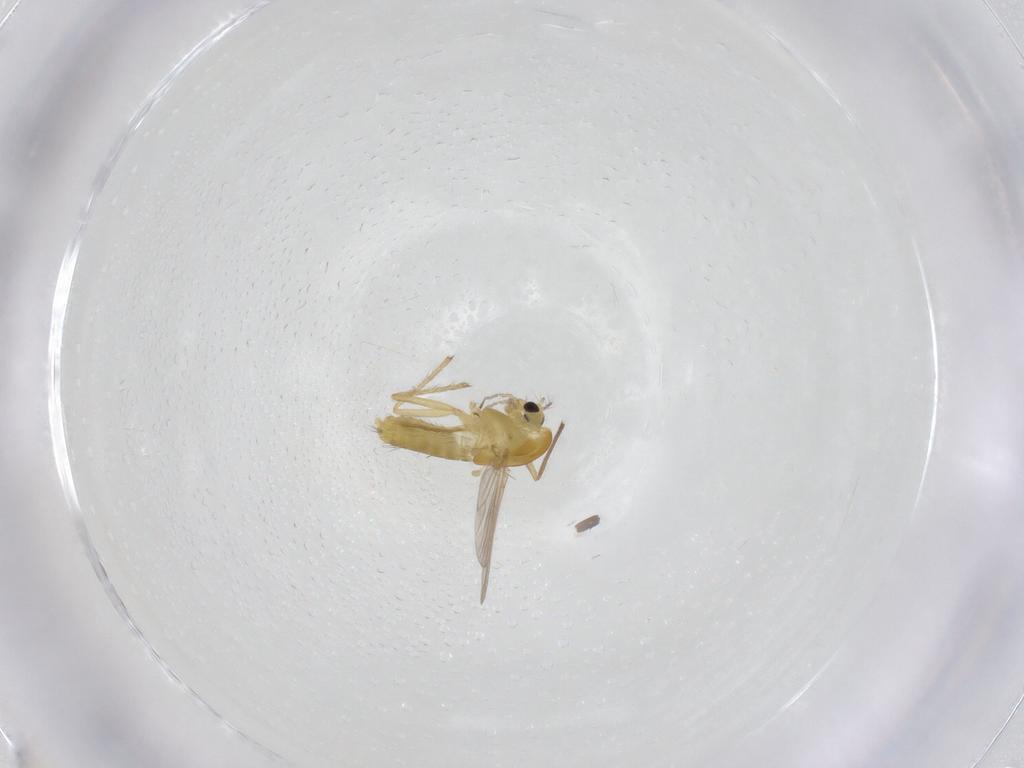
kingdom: Animalia
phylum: Arthropoda
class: Insecta
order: Diptera
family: Chironomidae
